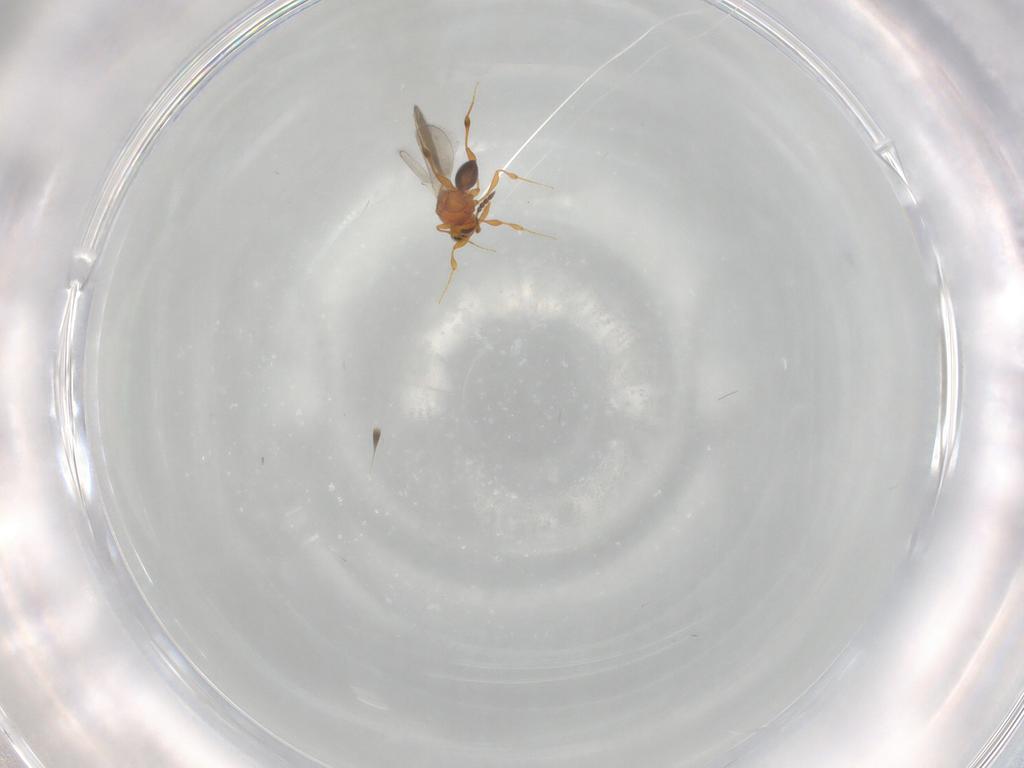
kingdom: Animalia
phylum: Arthropoda
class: Insecta
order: Hymenoptera
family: Platygastridae
